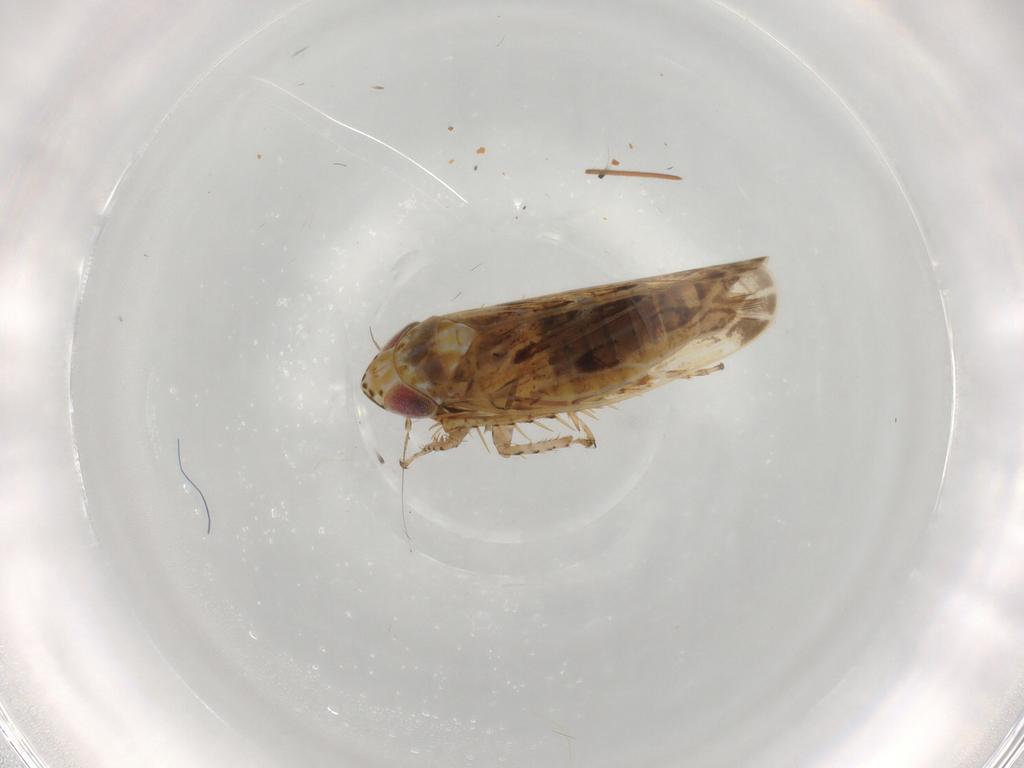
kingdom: Animalia
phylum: Arthropoda
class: Insecta
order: Hemiptera
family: Aphididae
